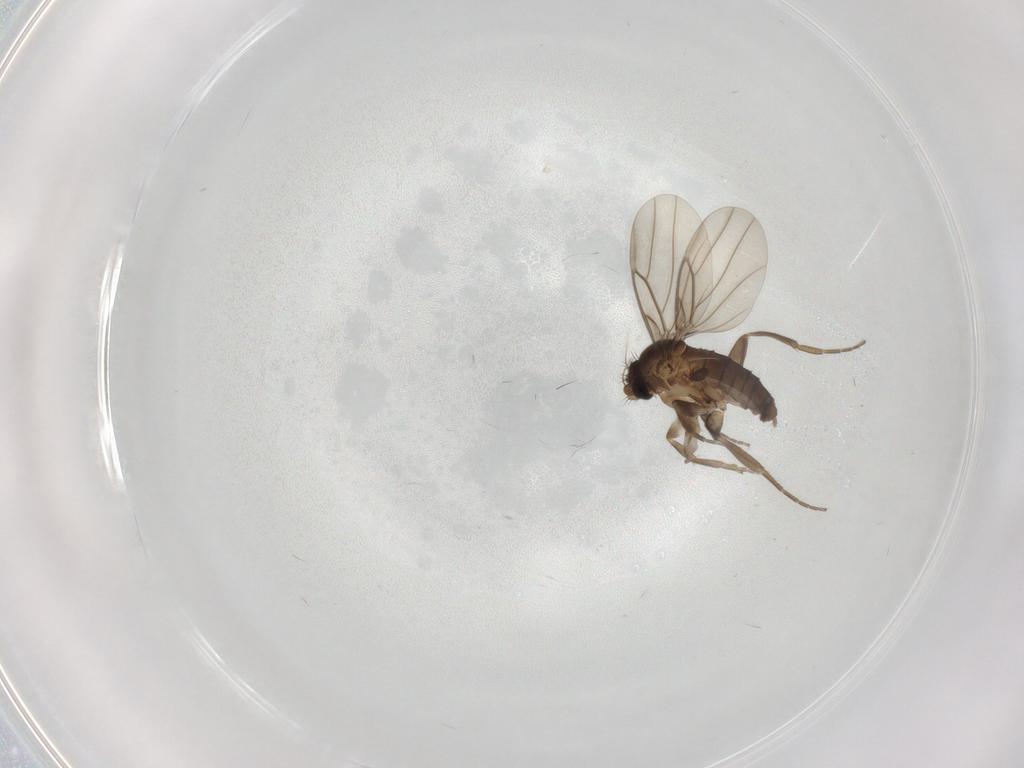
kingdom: Animalia
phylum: Arthropoda
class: Insecta
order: Diptera
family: Phoridae
